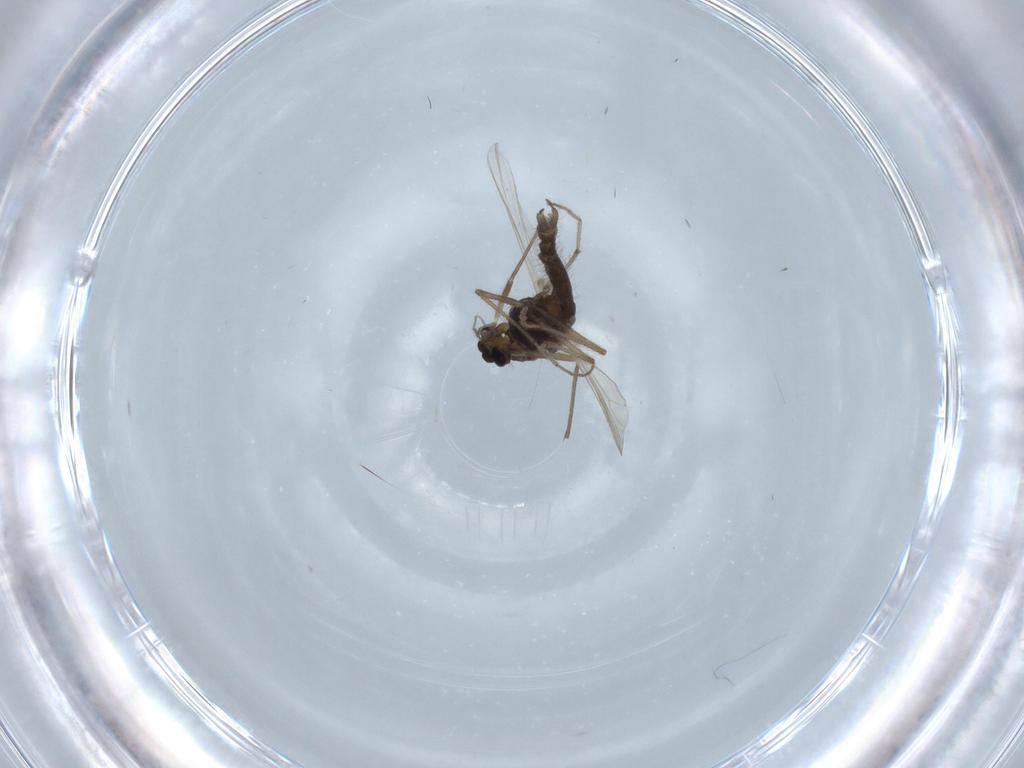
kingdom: Animalia
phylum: Arthropoda
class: Insecta
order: Diptera
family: Chironomidae
